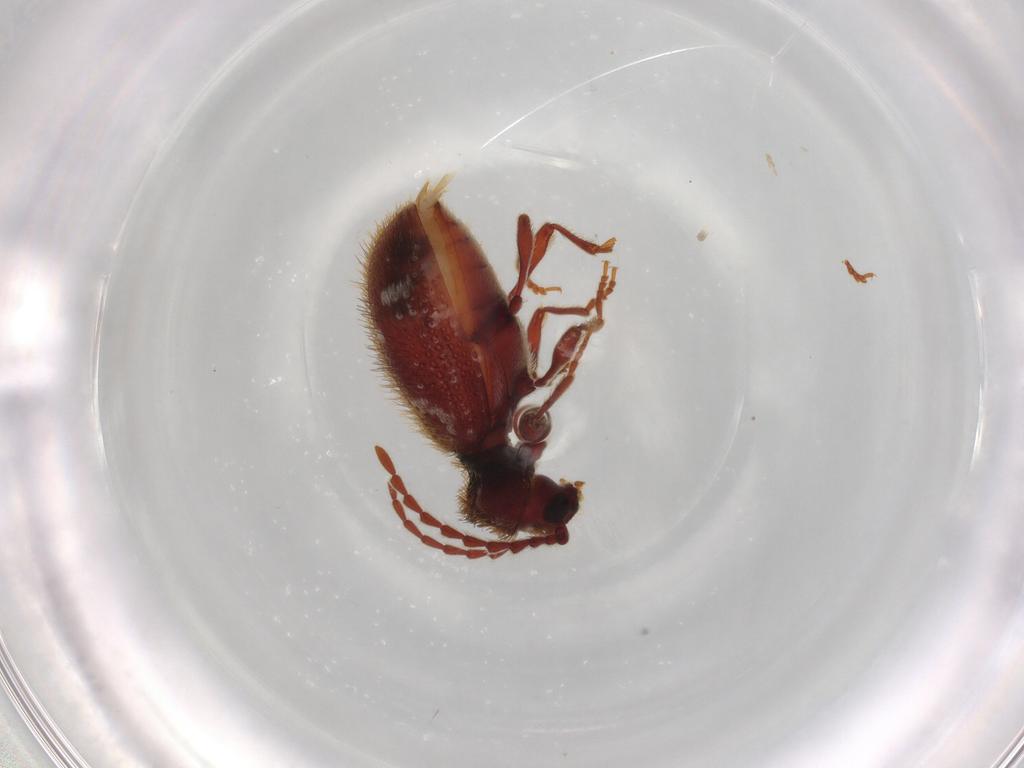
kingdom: Animalia
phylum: Arthropoda
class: Insecta
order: Coleoptera
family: Ptinidae
